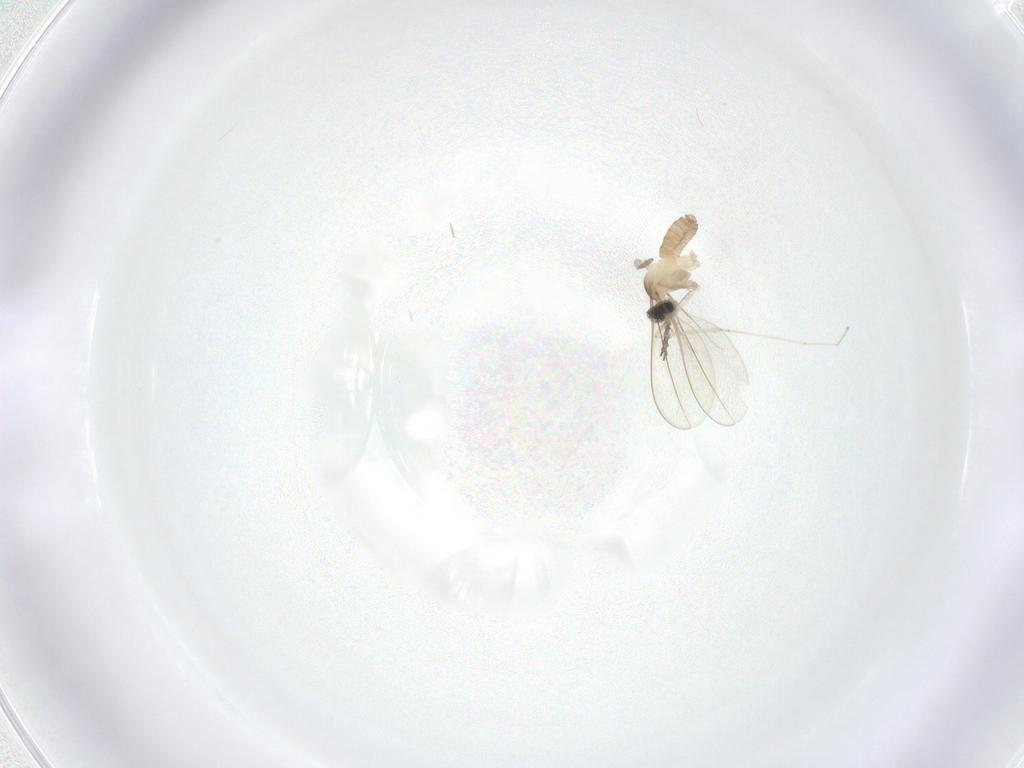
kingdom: Animalia
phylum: Arthropoda
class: Insecta
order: Diptera
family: Cecidomyiidae
